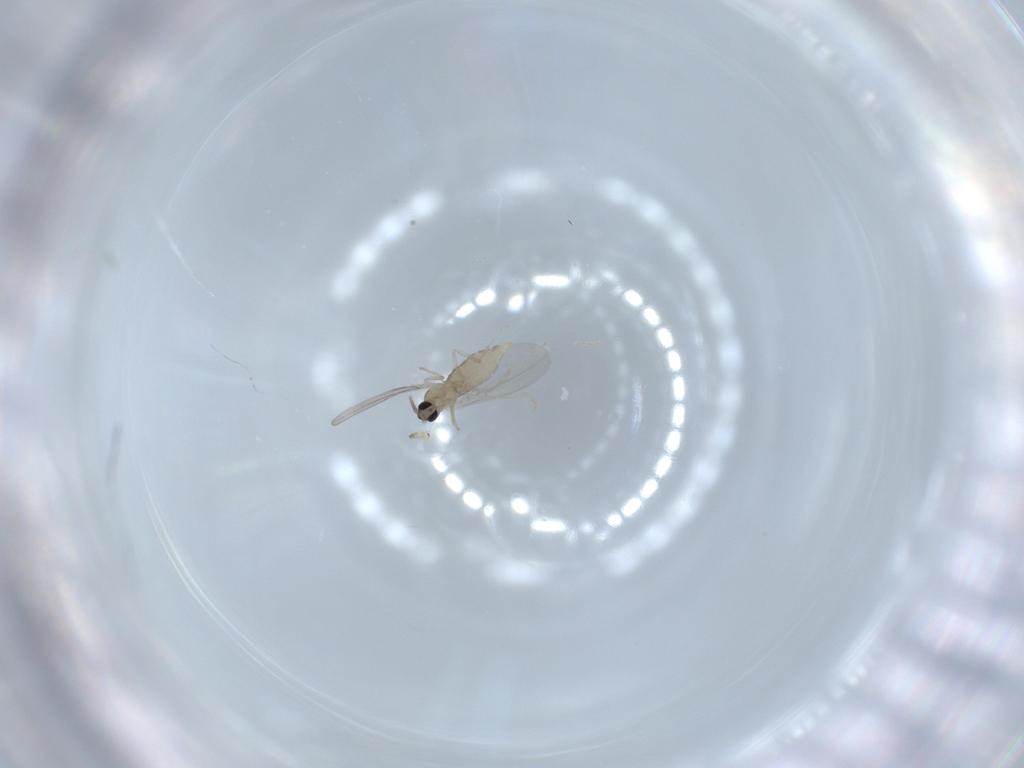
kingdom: Animalia
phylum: Arthropoda
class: Insecta
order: Diptera
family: Cecidomyiidae
